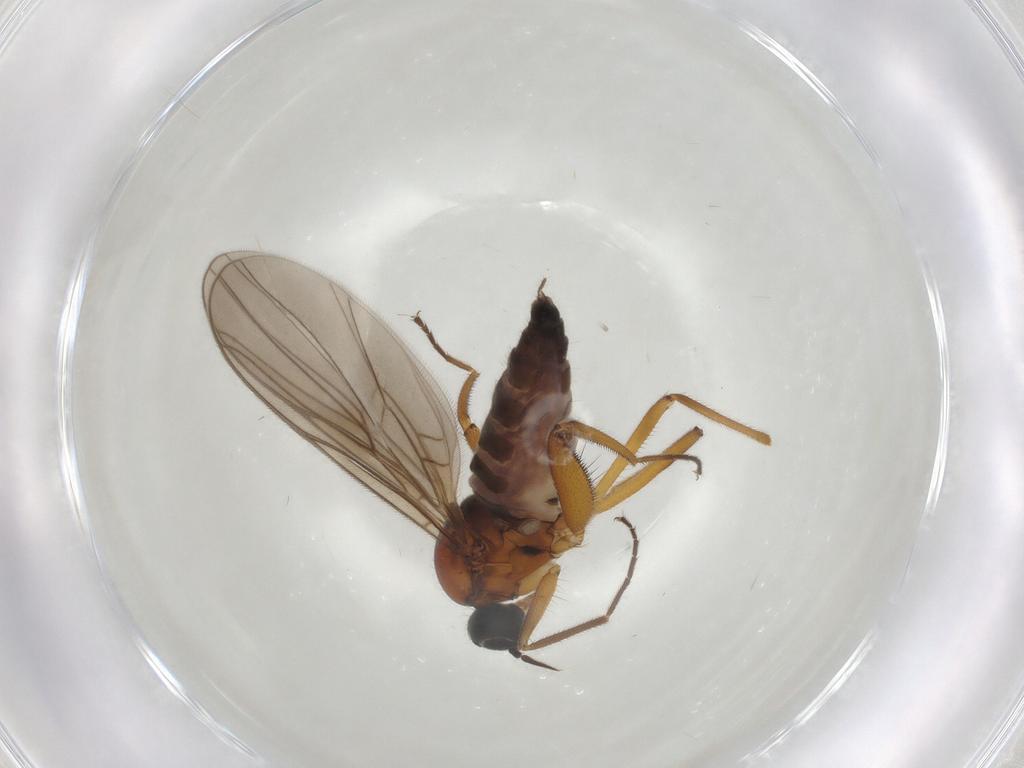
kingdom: Animalia
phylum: Arthropoda
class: Insecta
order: Diptera
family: Hybotidae
